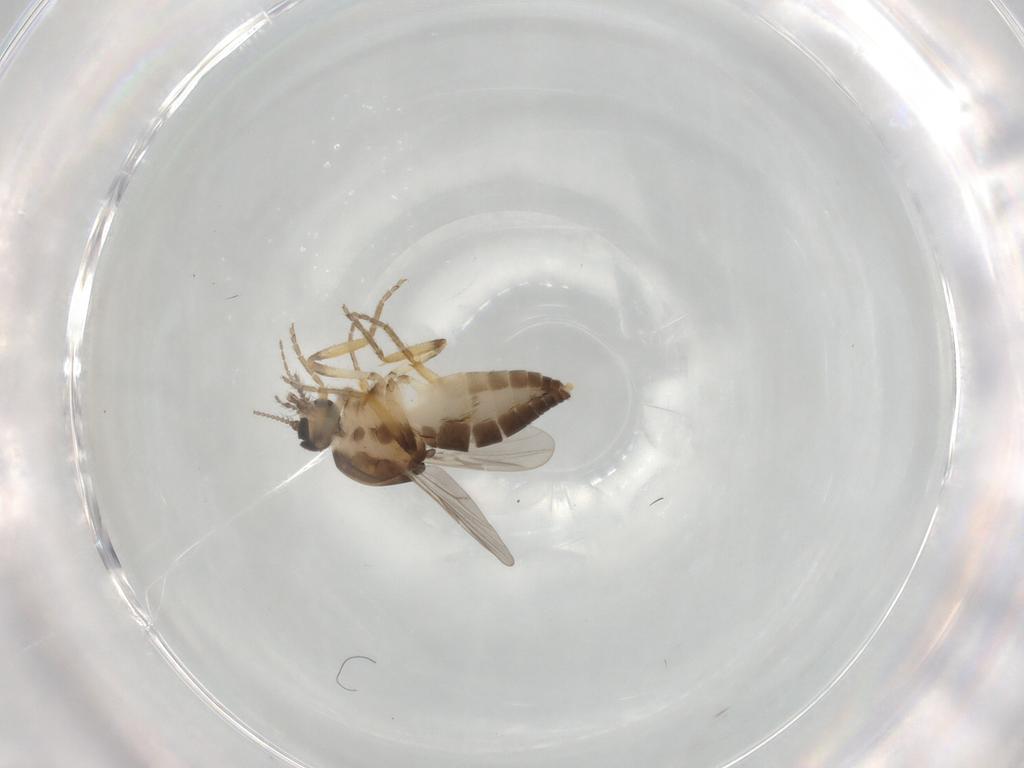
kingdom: Animalia
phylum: Arthropoda
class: Insecta
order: Diptera
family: Ceratopogonidae
